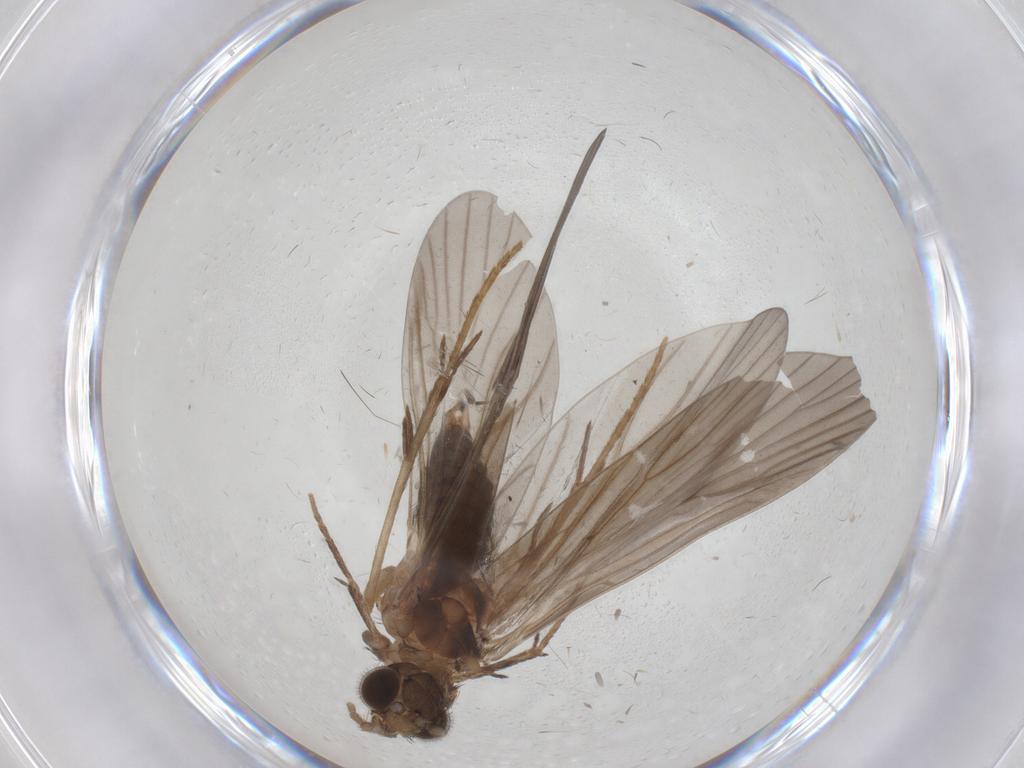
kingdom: Animalia
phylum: Arthropoda
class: Insecta
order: Trichoptera
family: Philopotamidae
